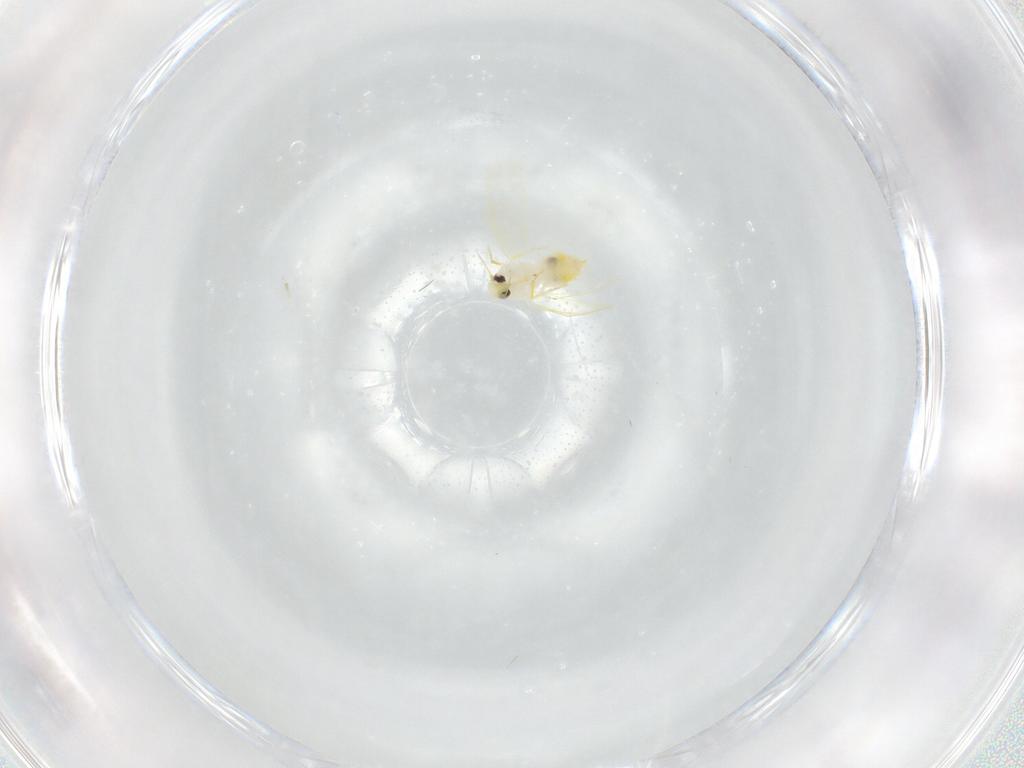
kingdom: Animalia
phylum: Arthropoda
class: Insecta
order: Hemiptera
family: Aleyrodidae
